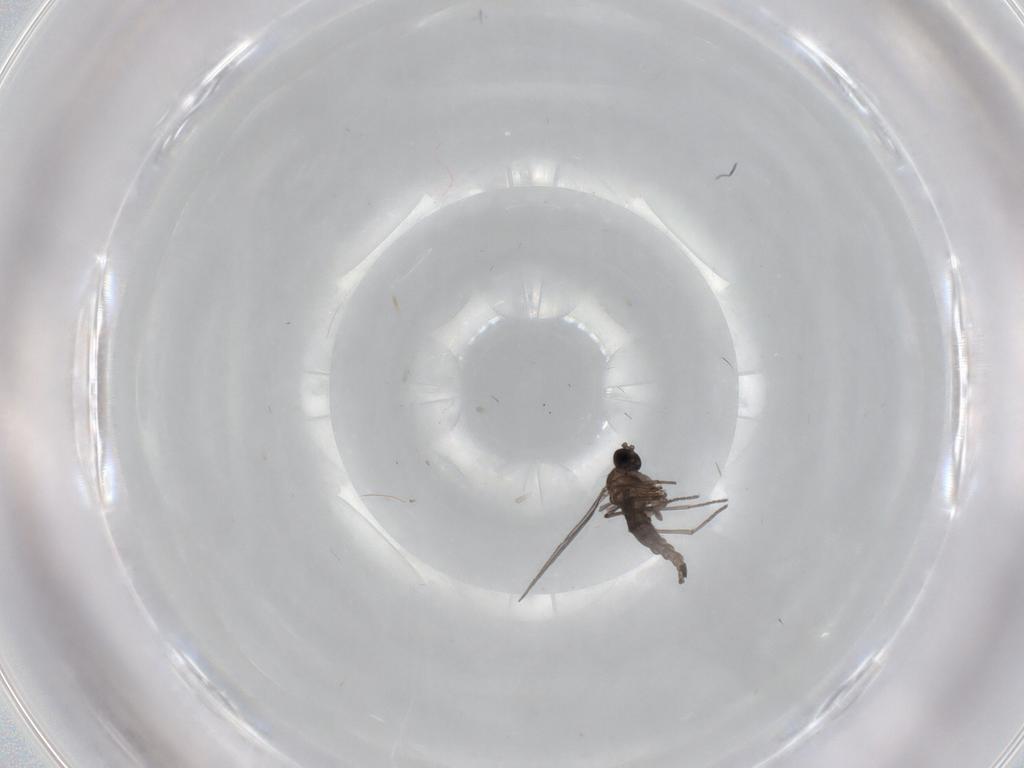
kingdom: Animalia
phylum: Arthropoda
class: Insecta
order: Diptera
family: Sciaridae
